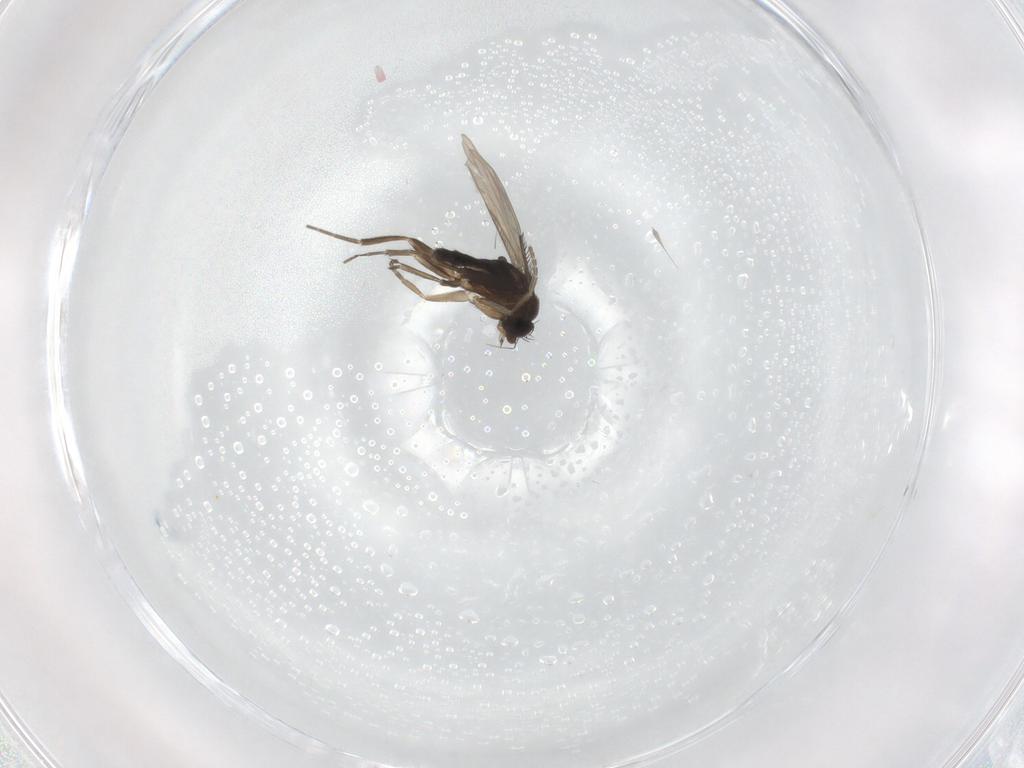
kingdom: Animalia
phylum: Arthropoda
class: Insecta
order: Diptera
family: Phoridae
